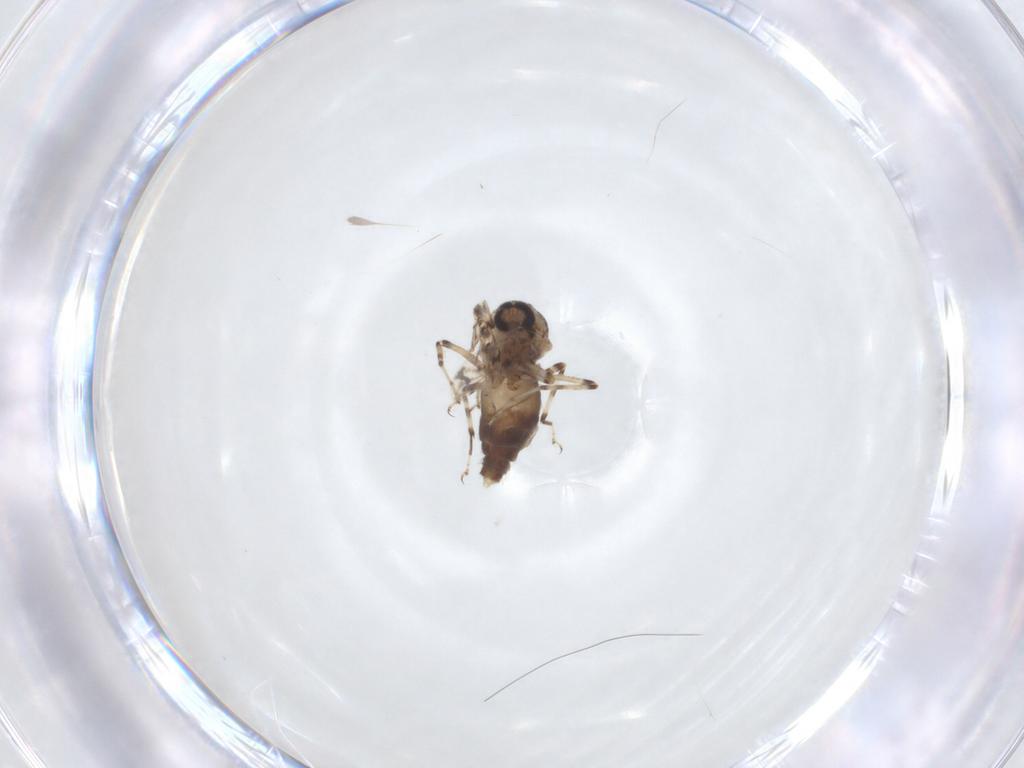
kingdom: Animalia
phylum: Arthropoda
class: Insecta
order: Diptera
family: Ceratopogonidae
